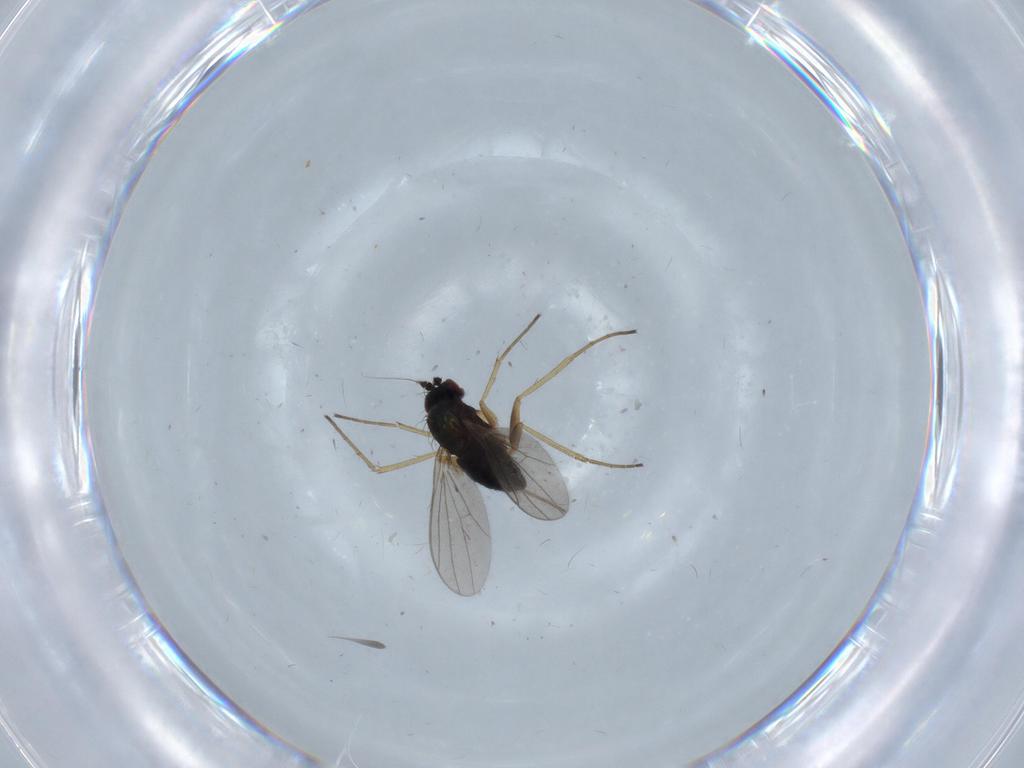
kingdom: Animalia
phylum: Arthropoda
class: Insecta
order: Diptera
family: Dolichopodidae
